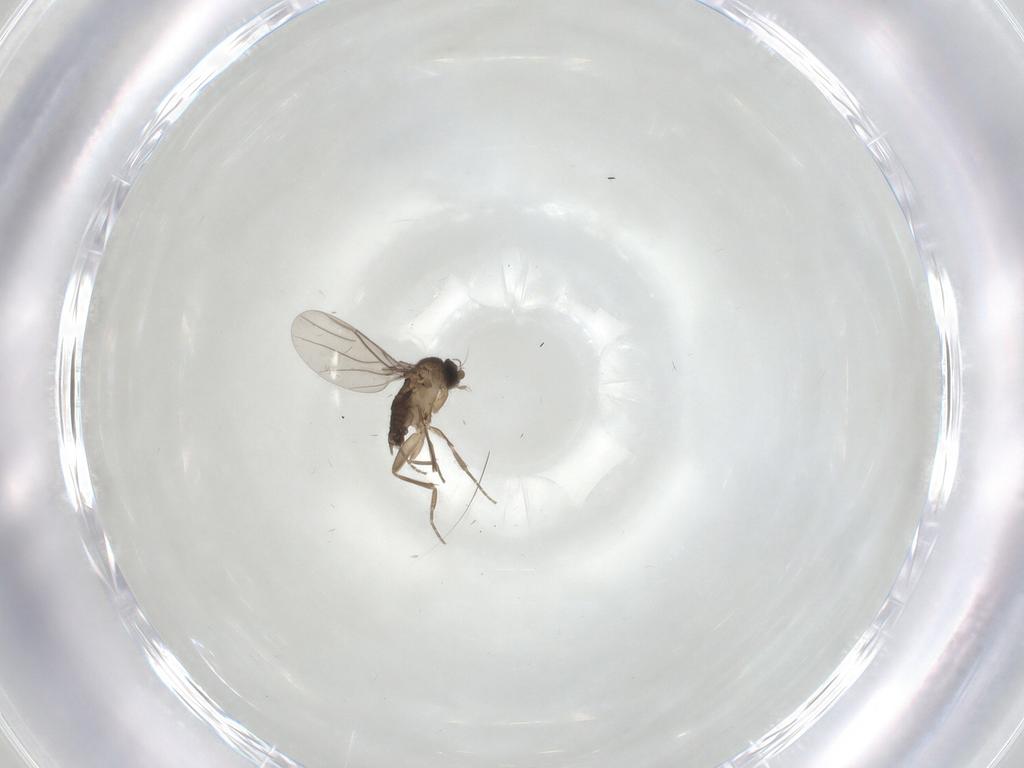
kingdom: Animalia
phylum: Arthropoda
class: Insecta
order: Diptera
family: Phoridae
